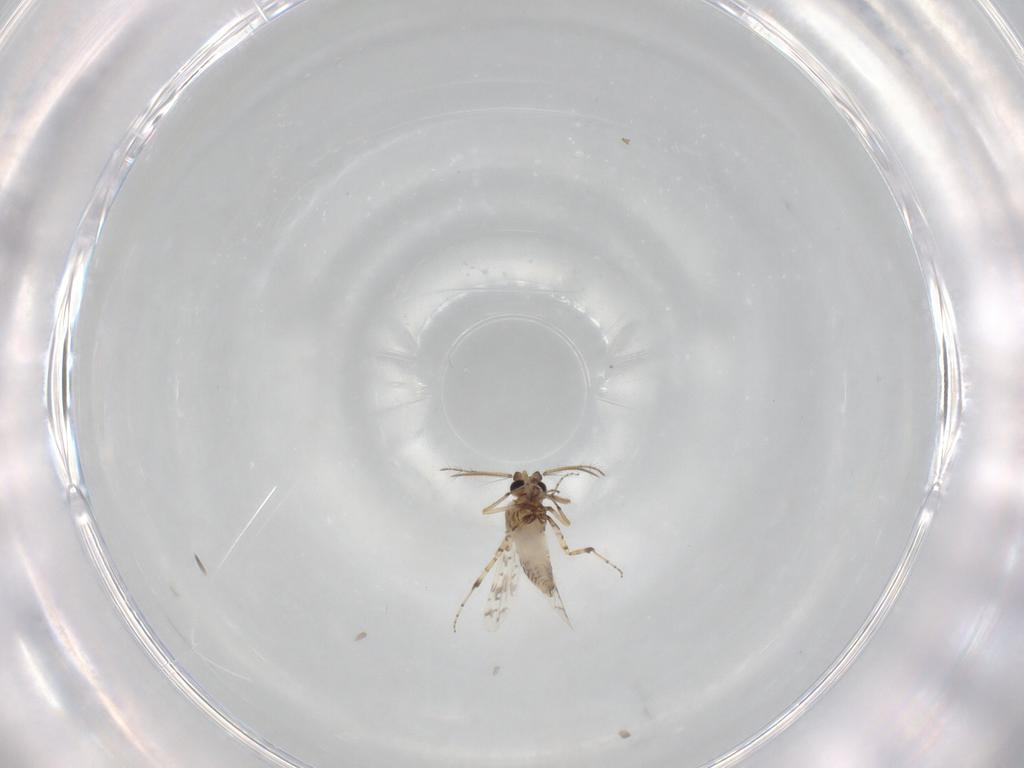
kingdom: Animalia
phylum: Arthropoda
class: Insecta
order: Diptera
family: Ceratopogonidae
